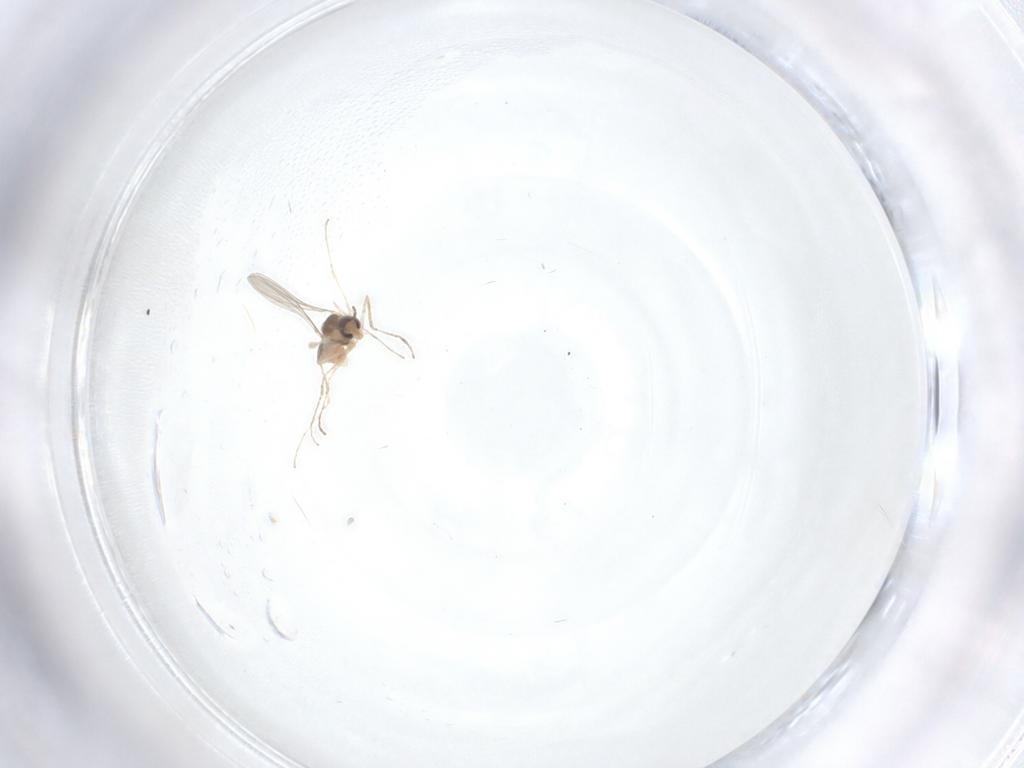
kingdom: Animalia
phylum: Arthropoda
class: Insecta
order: Diptera
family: Cecidomyiidae
